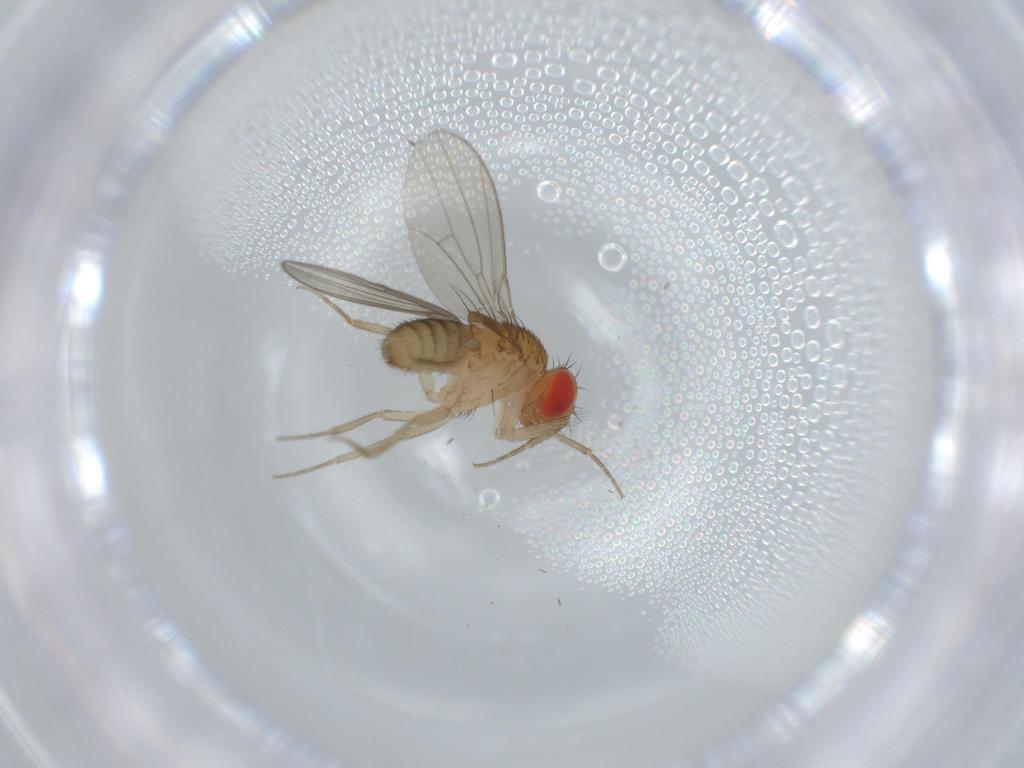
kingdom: Animalia
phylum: Arthropoda
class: Insecta
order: Diptera
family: Drosophilidae
